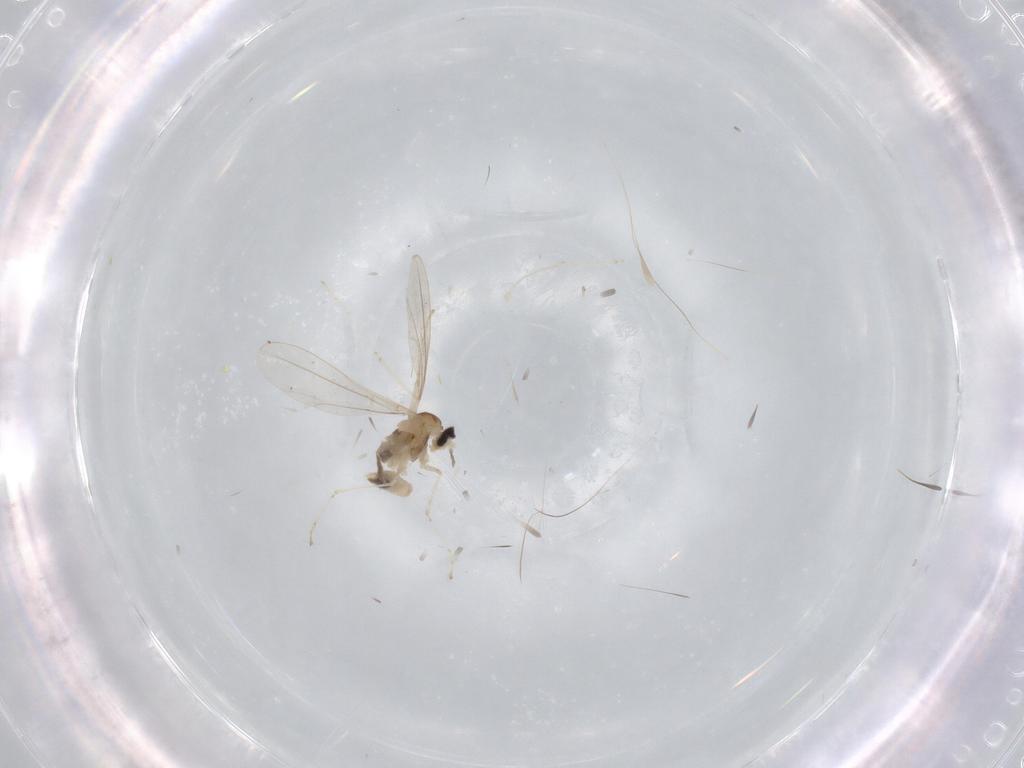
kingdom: Animalia
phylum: Arthropoda
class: Insecta
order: Diptera
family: Cecidomyiidae
